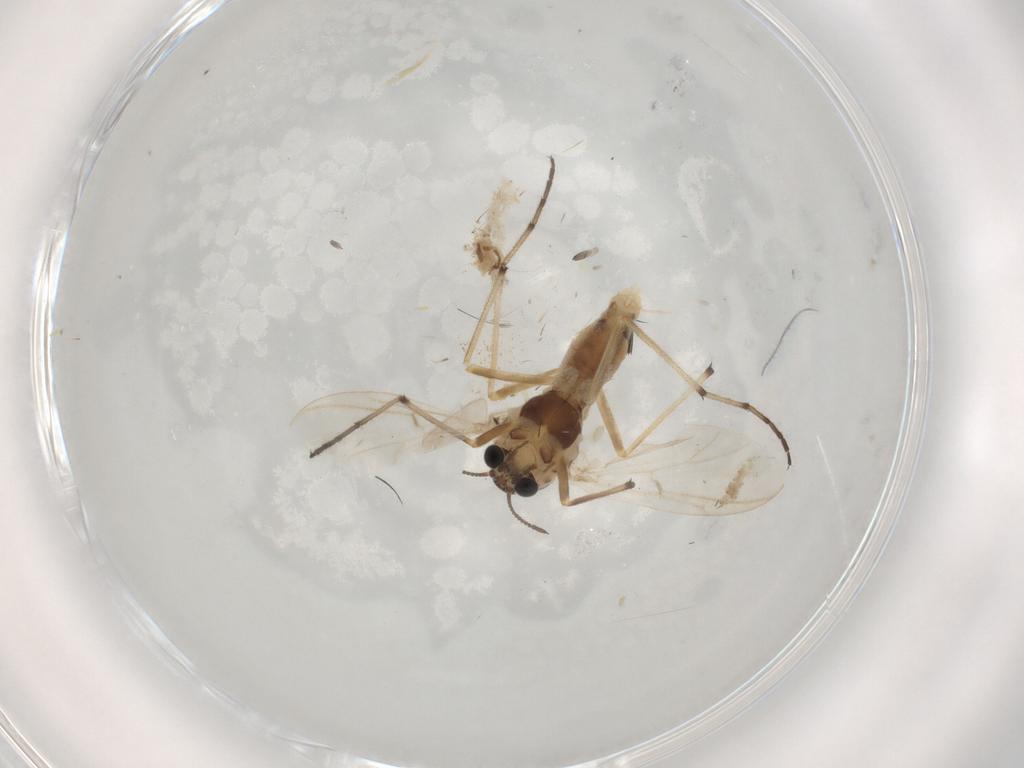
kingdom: Animalia
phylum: Arthropoda
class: Insecta
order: Diptera
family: Chironomidae
